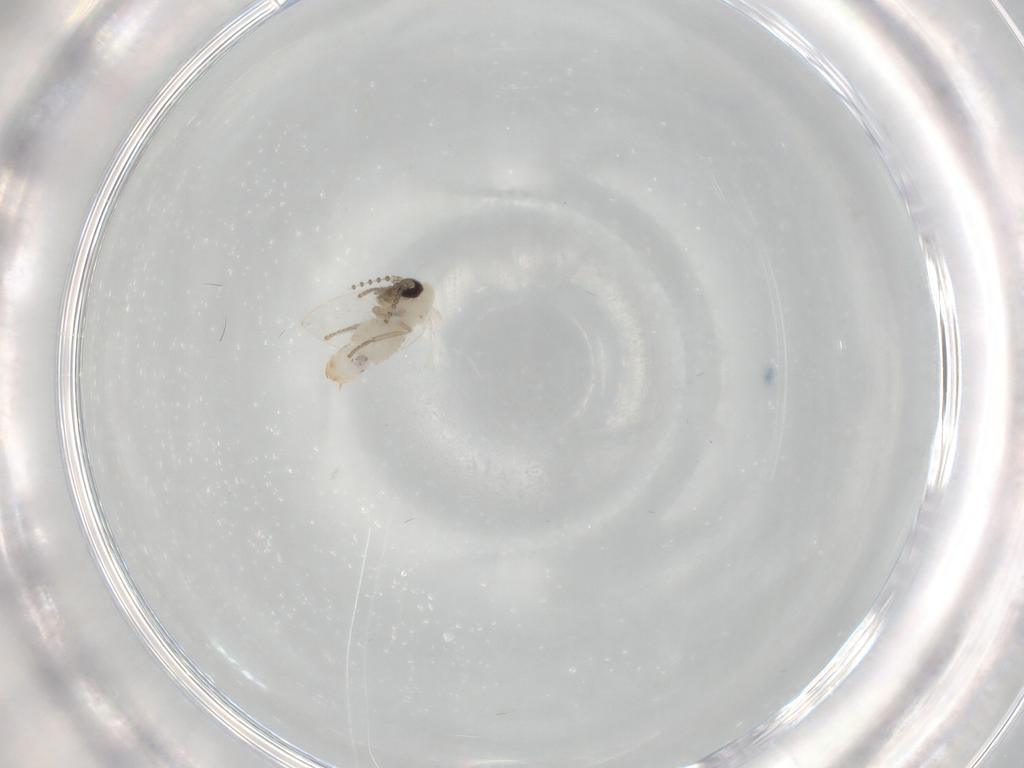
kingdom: Animalia
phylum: Arthropoda
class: Insecta
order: Diptera
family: Psychodidae
